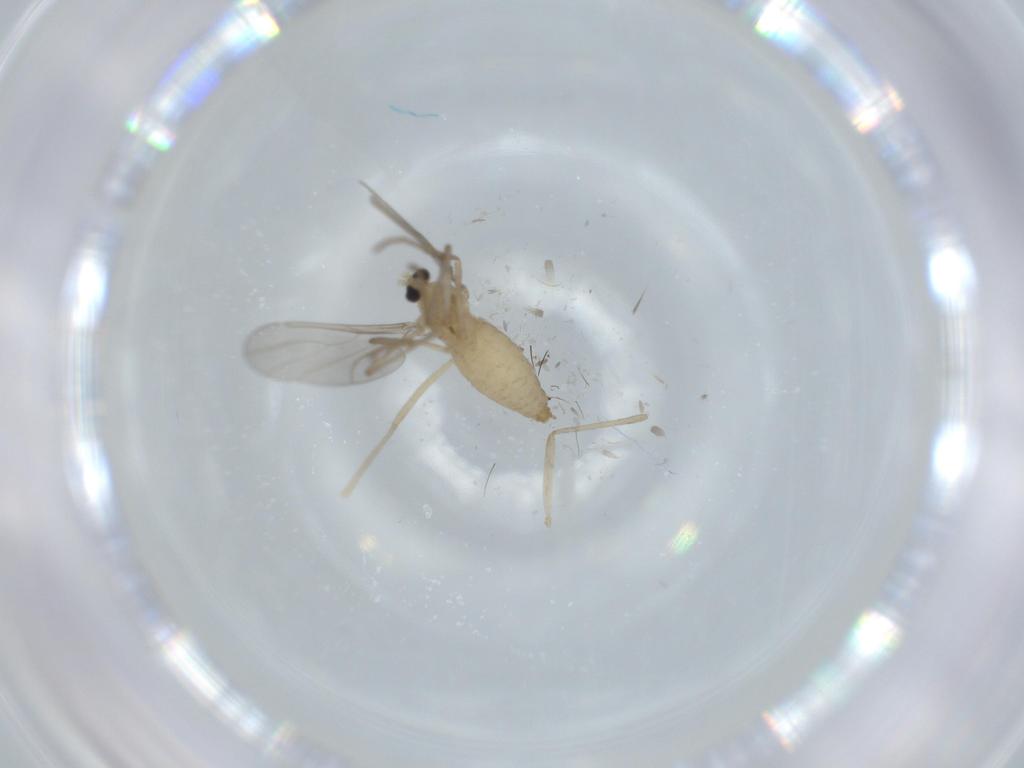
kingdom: Animalia
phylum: Arthropoda
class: Insecta
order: Diptera
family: Cecidomyiidae
